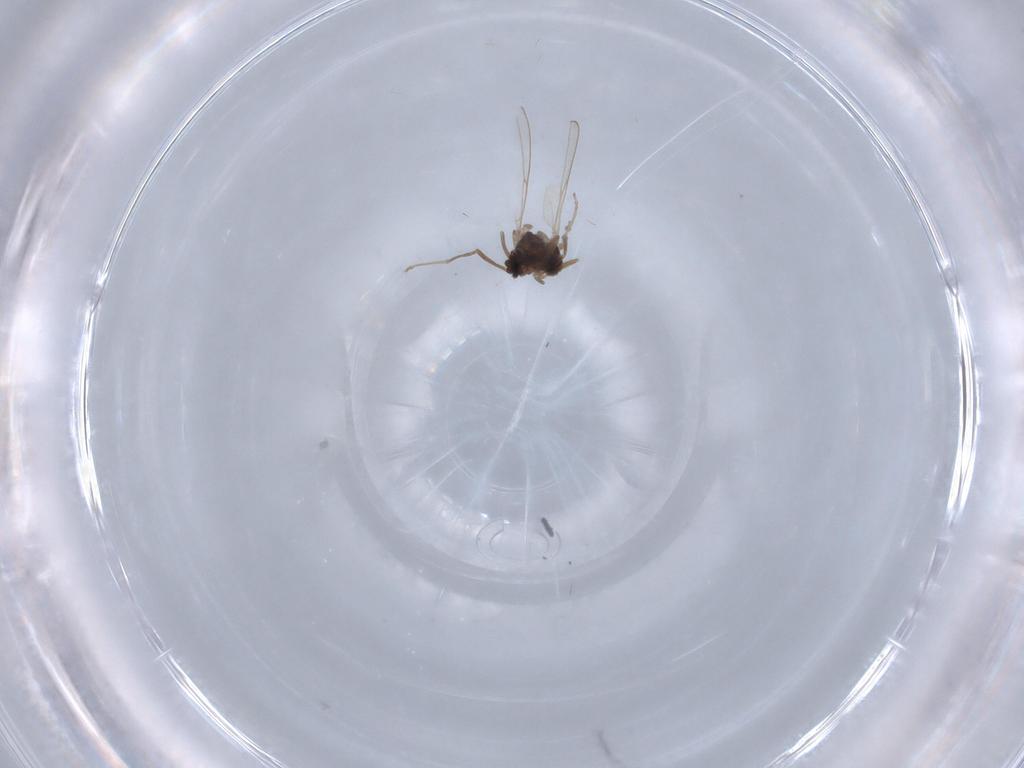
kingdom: Animalia
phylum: Arthropoda
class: Insecta
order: Diptera
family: Cecidomyiidae
